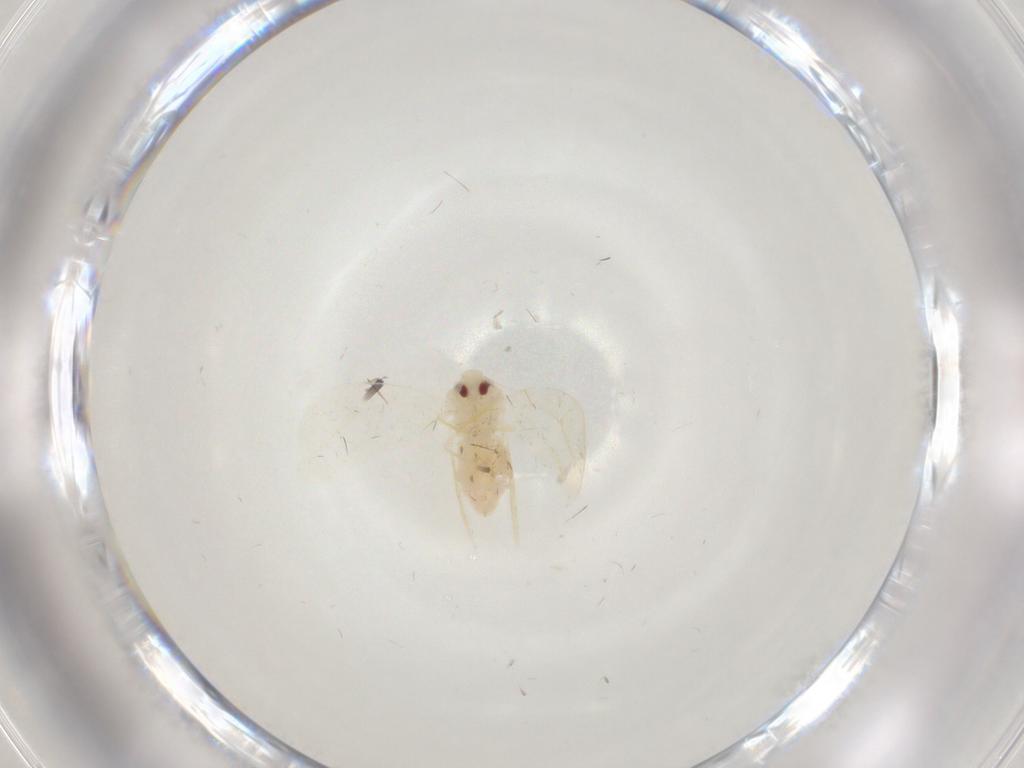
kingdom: Animalia
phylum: Arthropoda
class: Insecta
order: Hemiptera
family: Aleyrodidae
